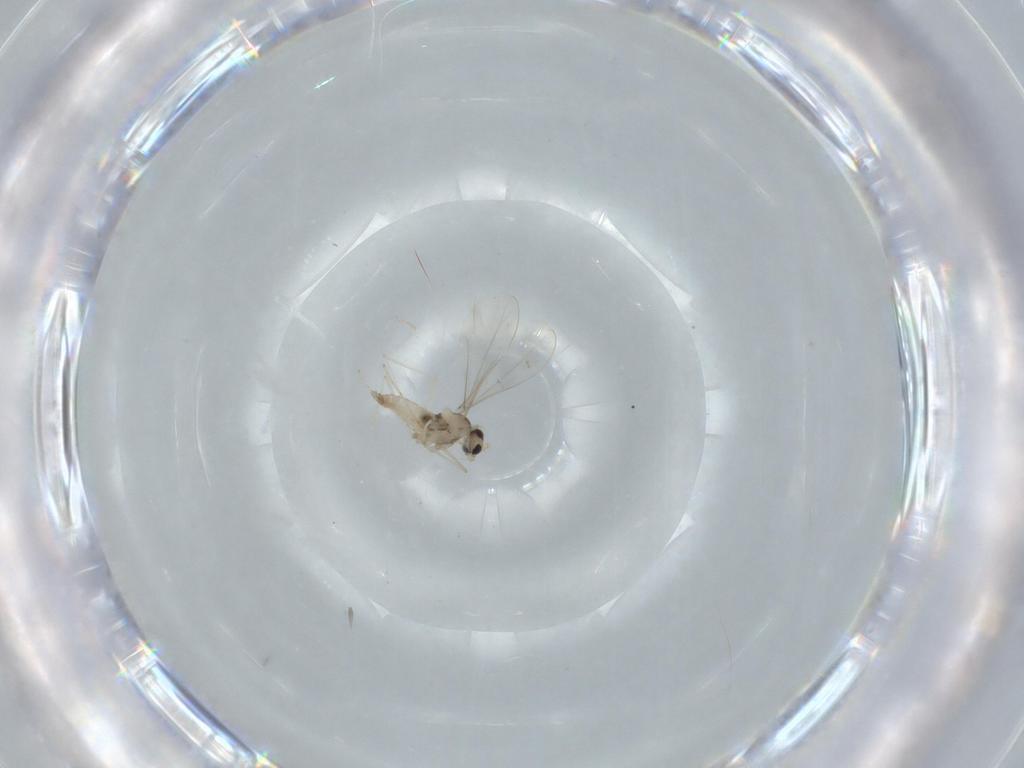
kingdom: Animalia
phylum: Arthropoda
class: Insecta
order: Diptera
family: Cecidomyiidae
